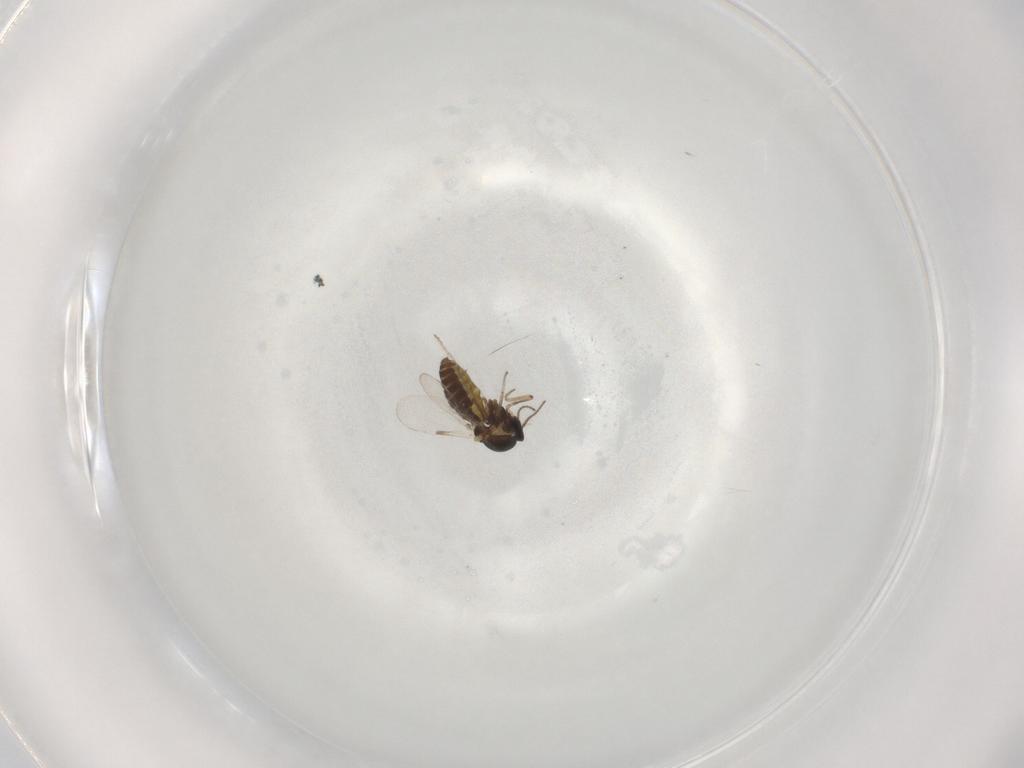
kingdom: Animalia
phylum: Arthropoda
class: Insecta
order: Diptera
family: Ceratopogonidae
